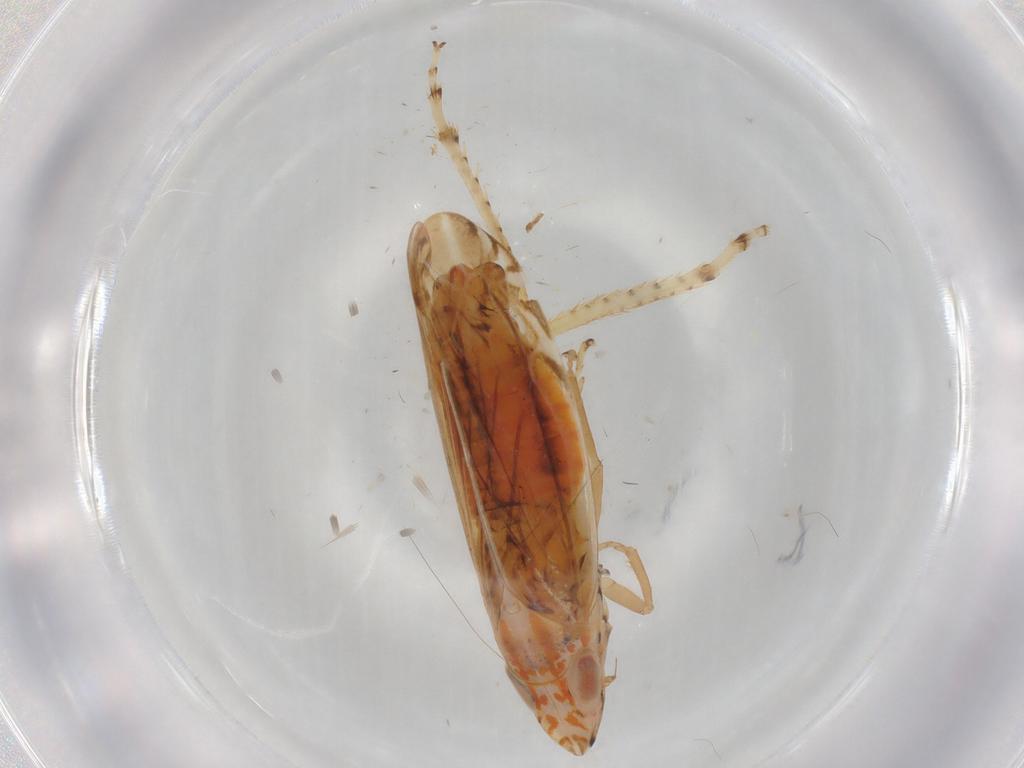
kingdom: Animalia
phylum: Arthropoda
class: Insecta
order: Hemiptera
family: Cicadellidae
